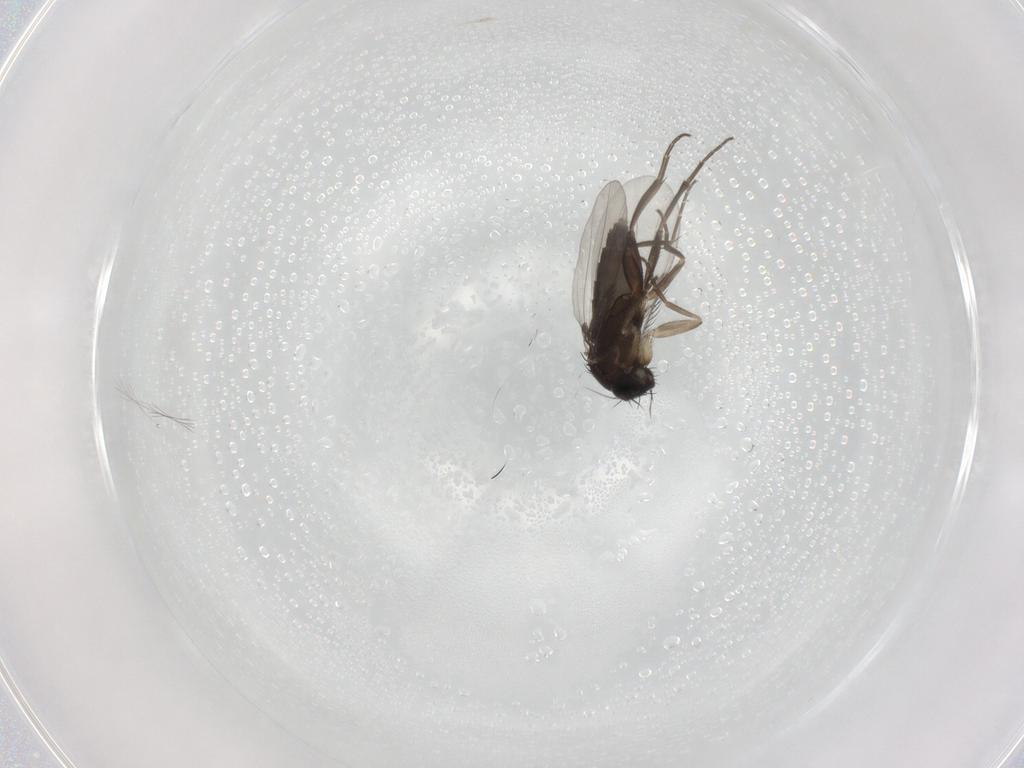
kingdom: Animalia
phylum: Arthropoda
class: Insecta
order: Diptera
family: Phoridae
